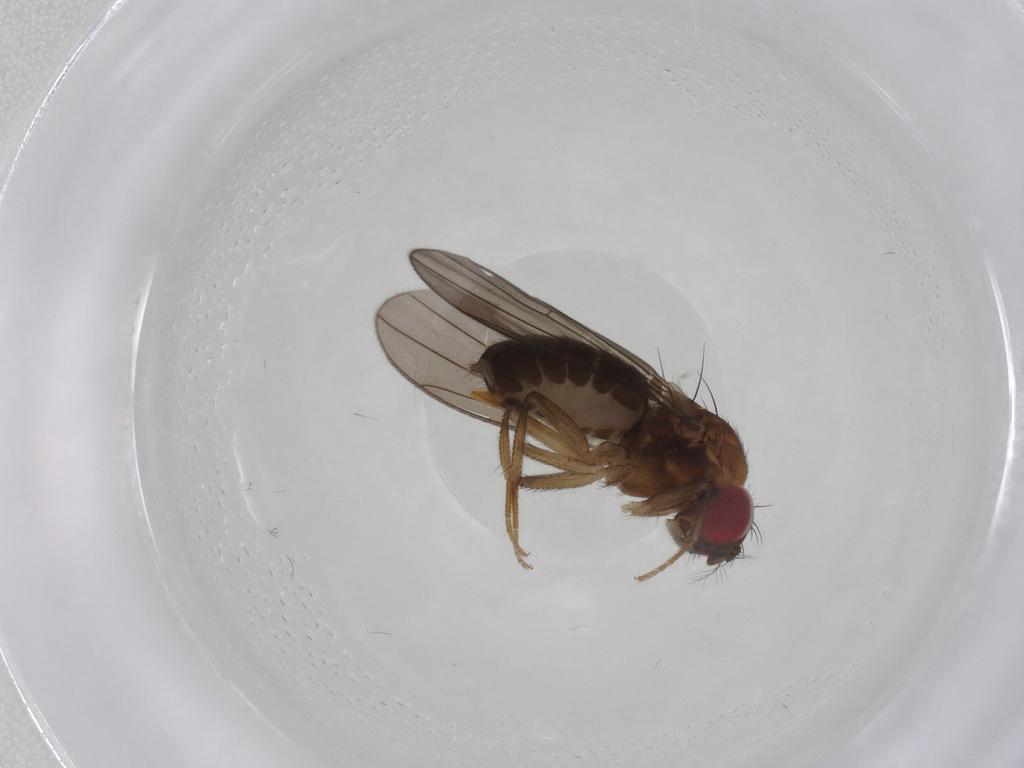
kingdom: Animalia
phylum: Arthropoda
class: Insecta
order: Diptera
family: Drosophilidae
